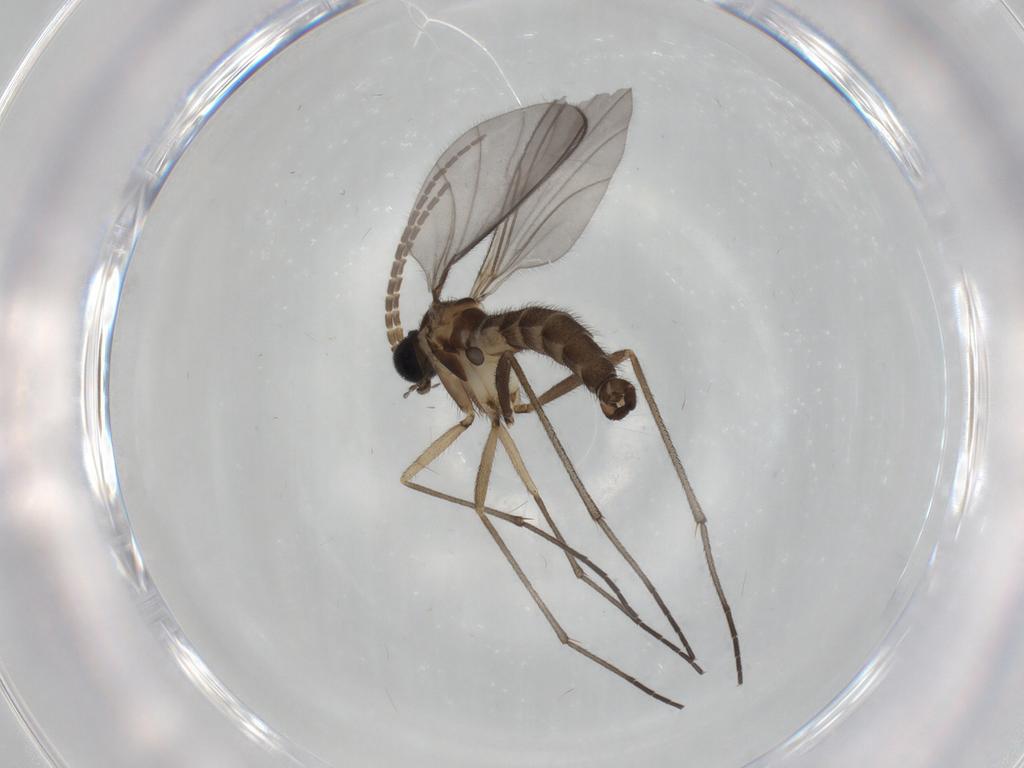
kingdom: Animalia
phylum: Arthropoda
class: Insecta
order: Diptera
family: Sciaridae
